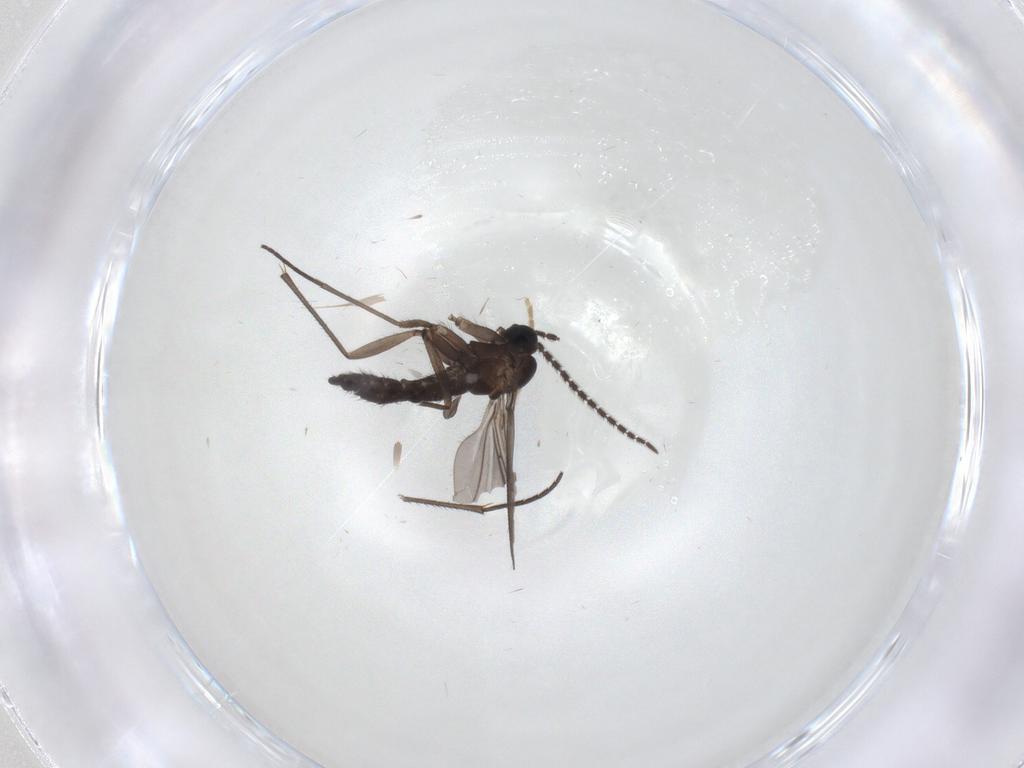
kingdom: Animalia
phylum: Arthropoda
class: Insecta
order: Diptera
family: Sciaridae
